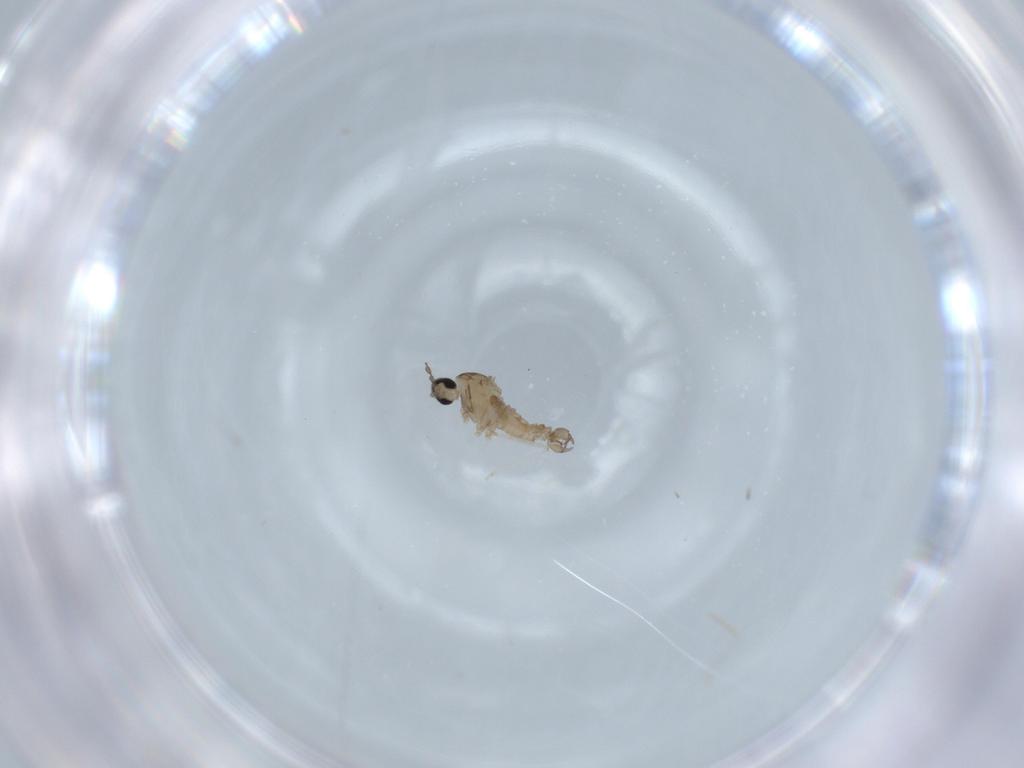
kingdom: Animalia
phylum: Arthropoda
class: Insecta
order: Diptera
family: Cecidomyiidae
